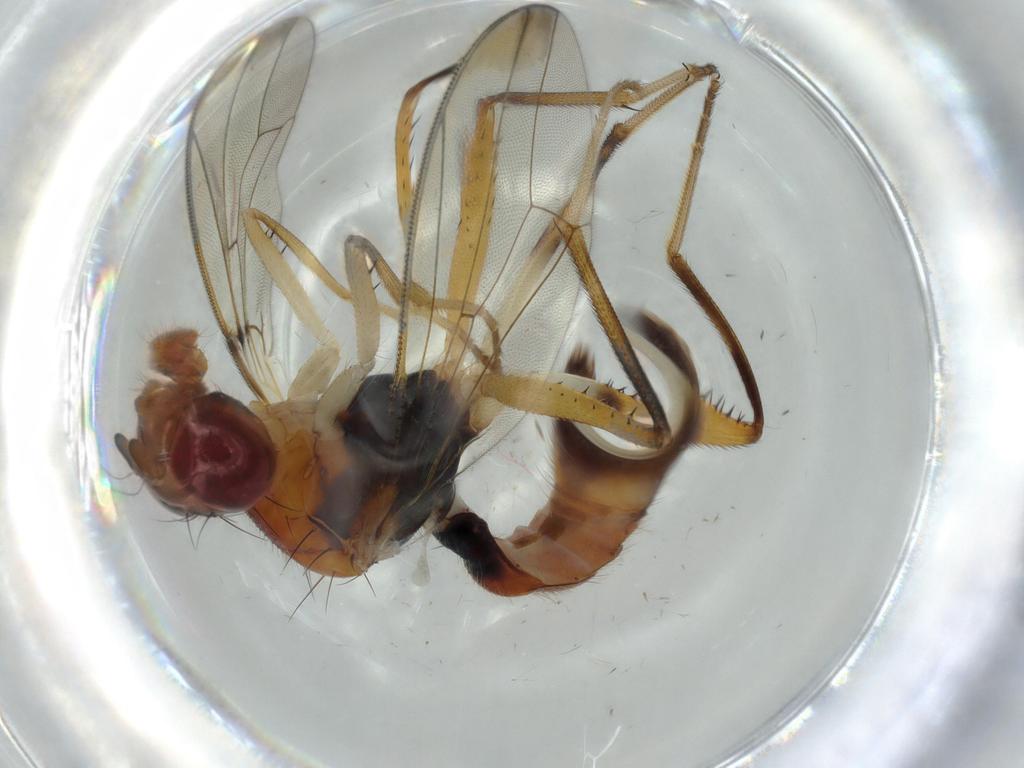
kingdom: Animalia
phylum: Arthropoda
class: Insecta
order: Diptera
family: Richardiidae
